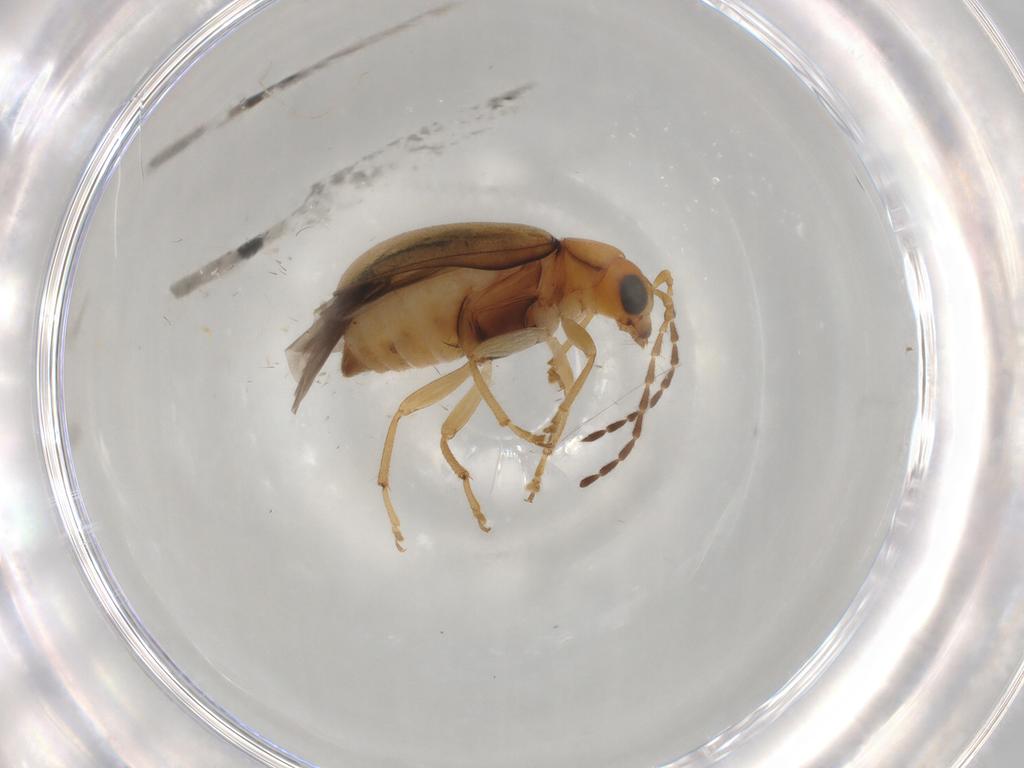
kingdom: Animalia
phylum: Arthropoda
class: Insecta
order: Coleoptera
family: Chrysomelidae
